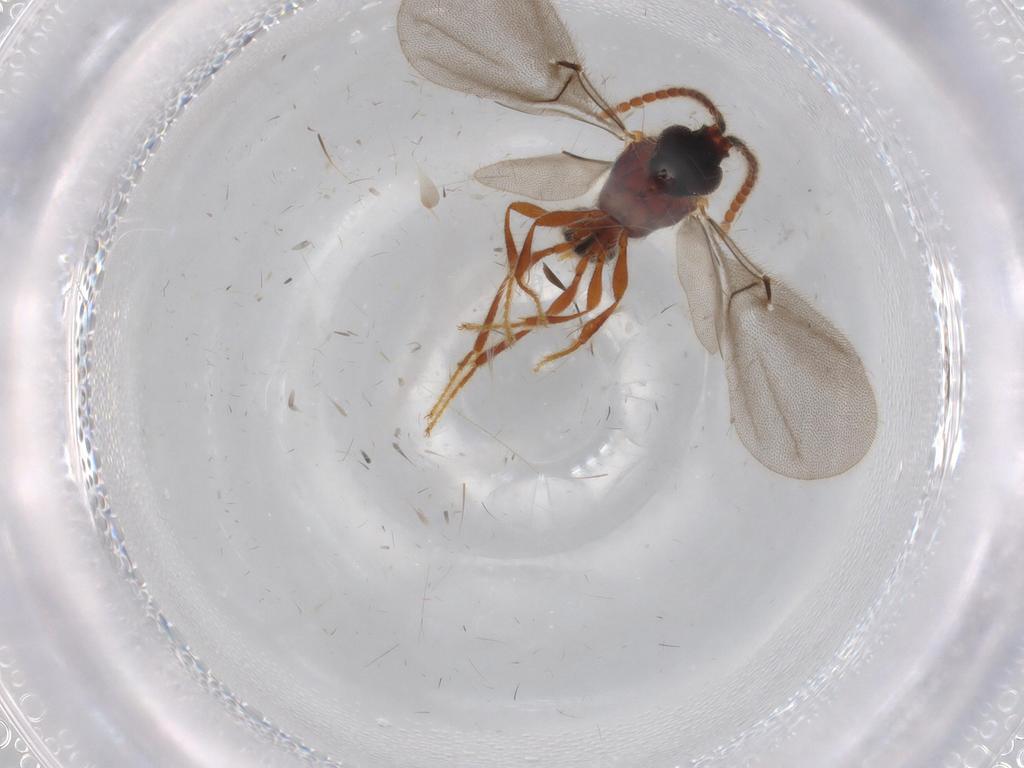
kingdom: Animalia
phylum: Arthropoda
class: Insecta
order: Hymenoptera
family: Diapriidae
